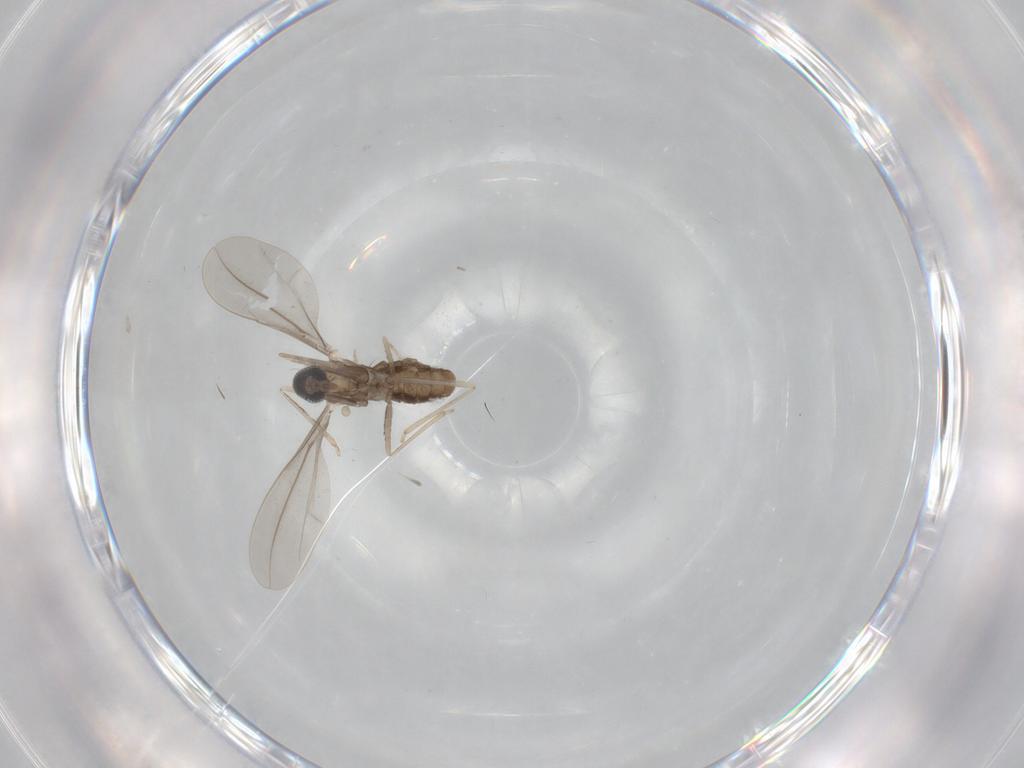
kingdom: Animalia
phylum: Arthropoda
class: Insecta
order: Diptera
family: Cecidomyiidae
